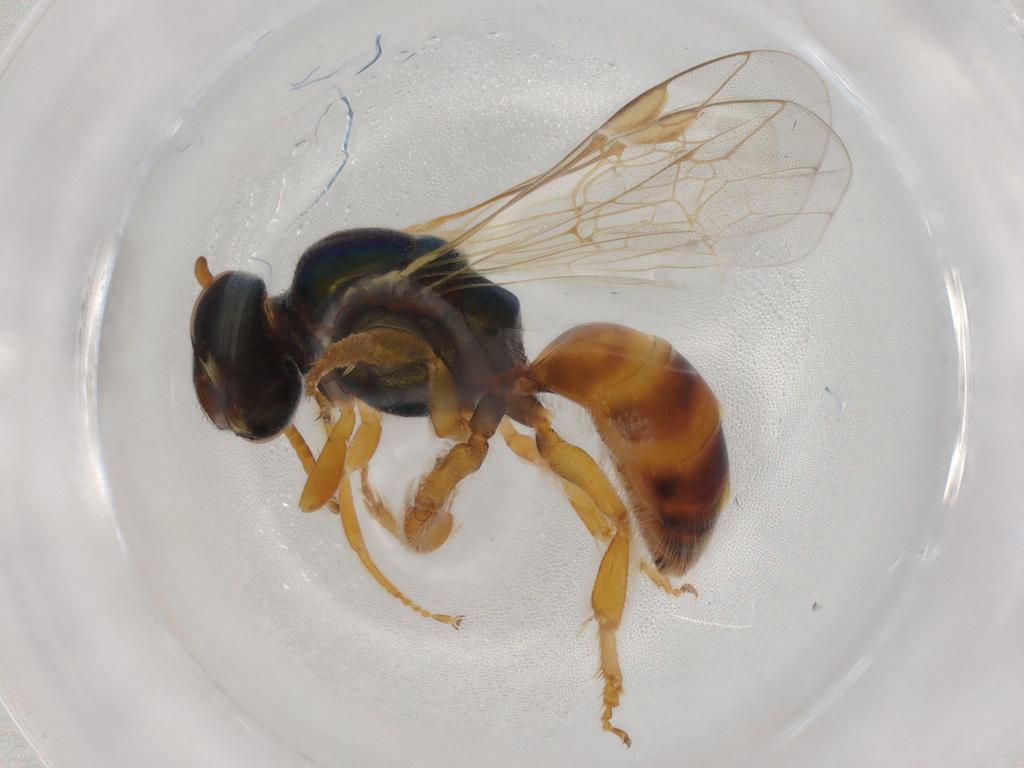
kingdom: Animalia
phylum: Arthropoda
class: Insecta
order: Hymenoptera
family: Halictidae
